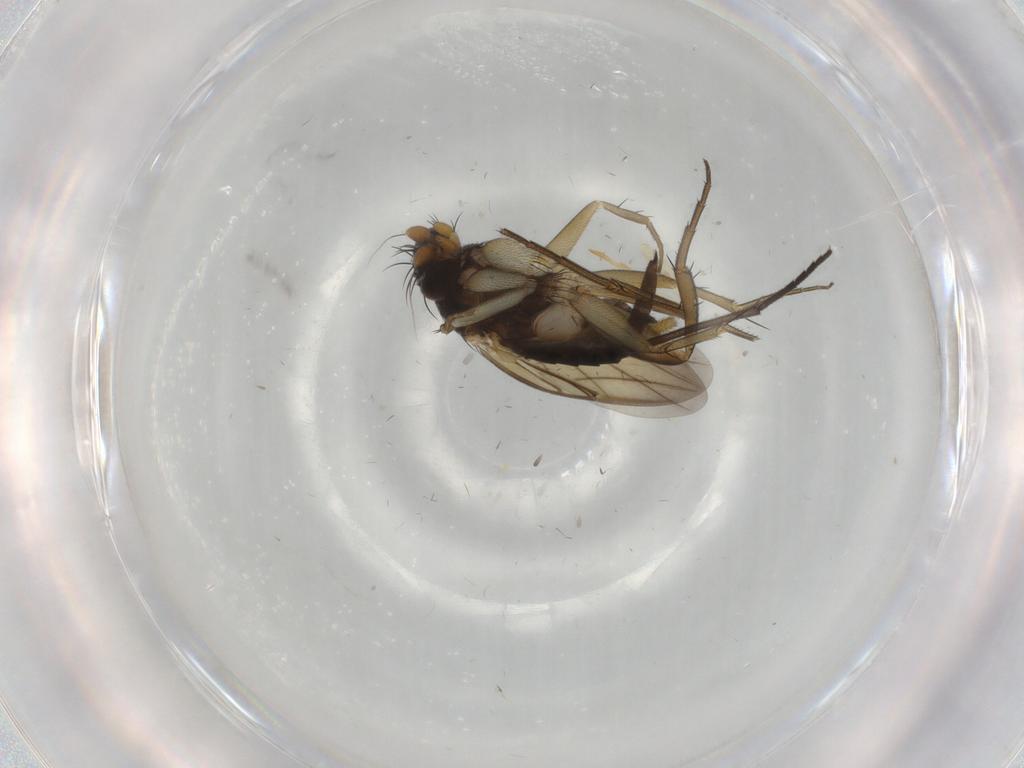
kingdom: Animalia
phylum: Arthropoda
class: Insecta
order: Diptera
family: Phoridae
